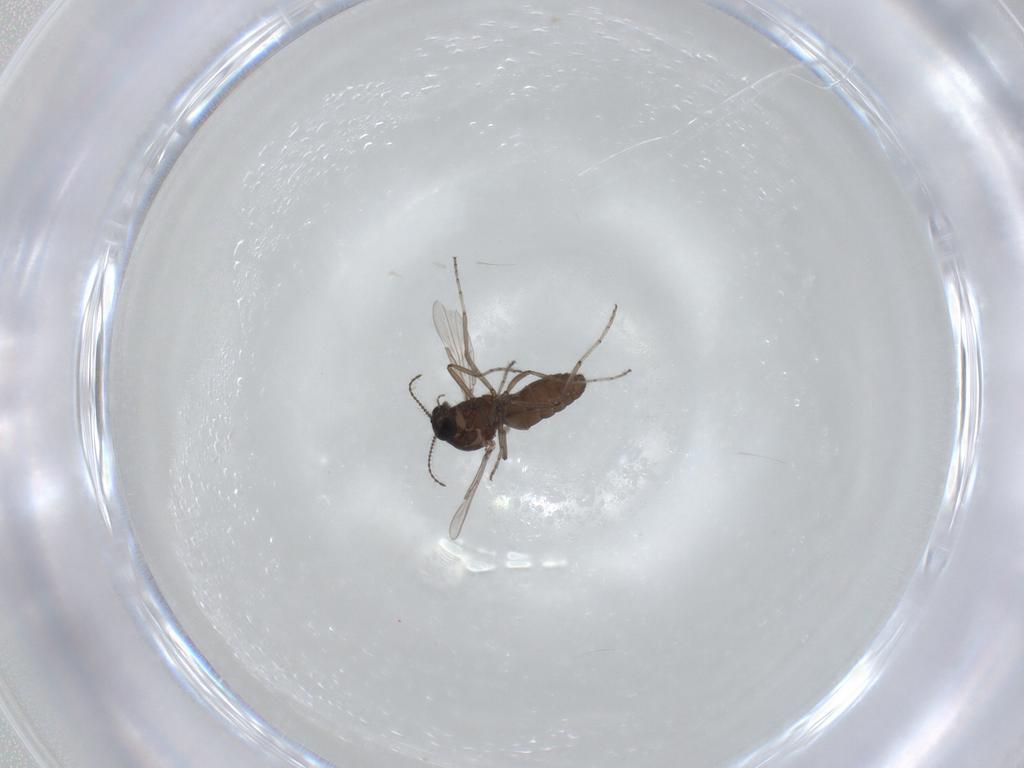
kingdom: Animalia
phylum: Arthropoda
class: Insecta
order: Diptera
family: Ceratopogonidae
